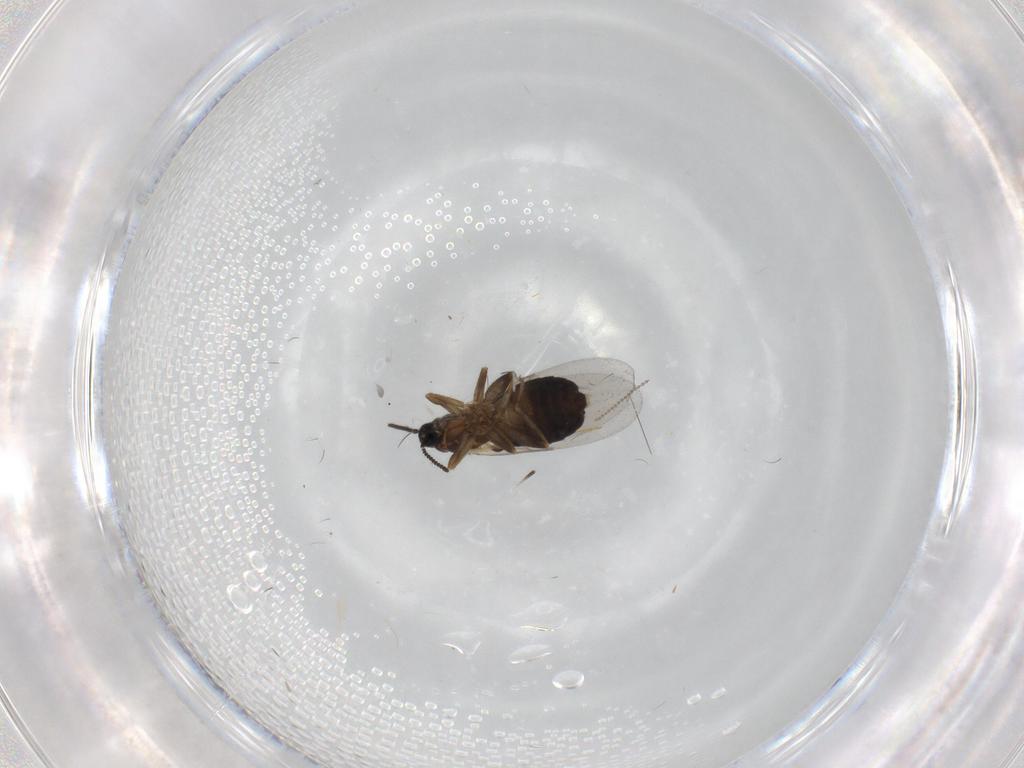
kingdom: Animalia
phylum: Arthropoda
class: Insecta
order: Diptera
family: Scatopsidae
